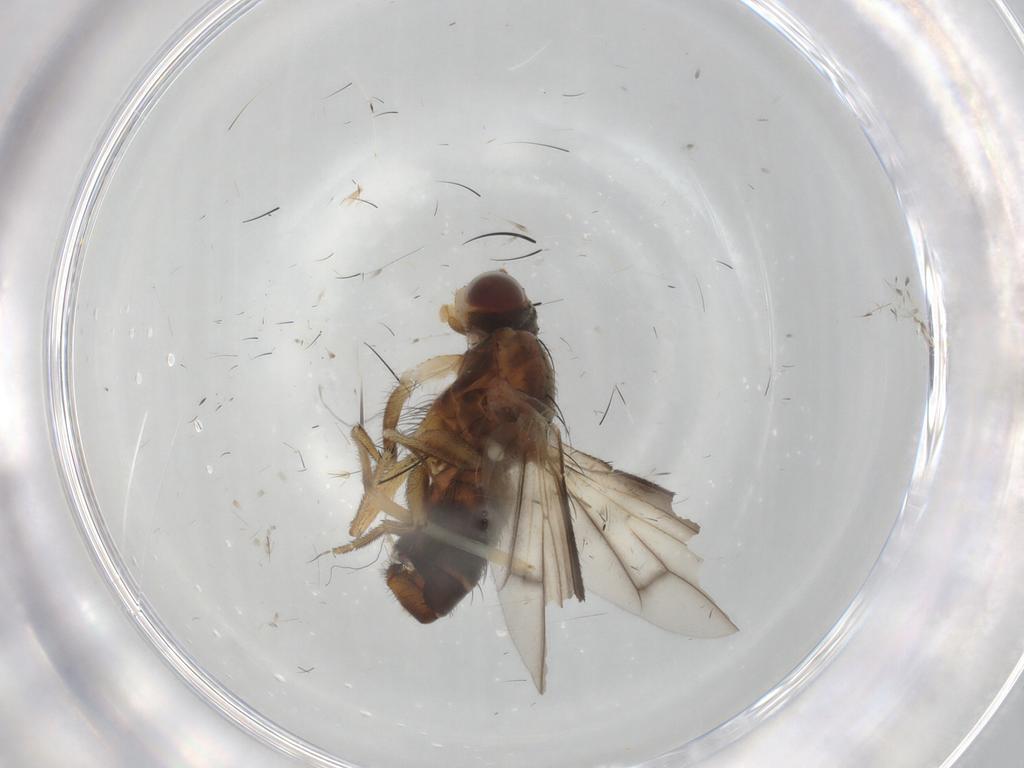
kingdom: Animalia
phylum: Arthropoda
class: Insecta
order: Diptera
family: Heleomyzidae
